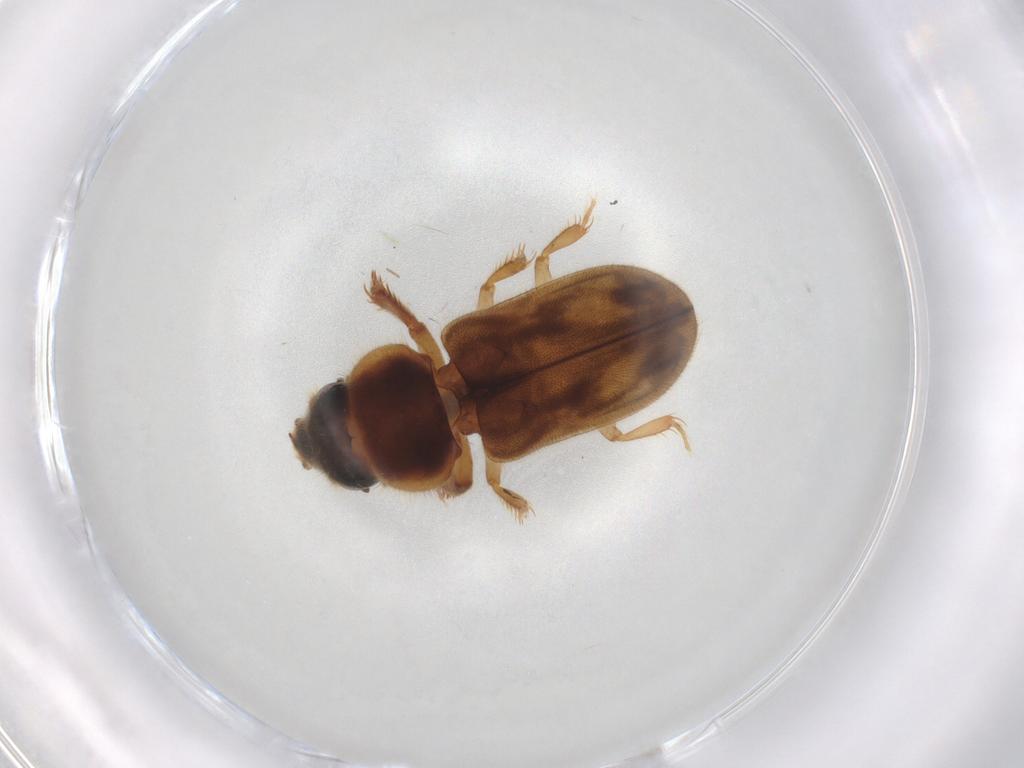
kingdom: Animalia
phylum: Arthropoda
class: Insecta
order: Coleoptera
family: Heteroceridae
